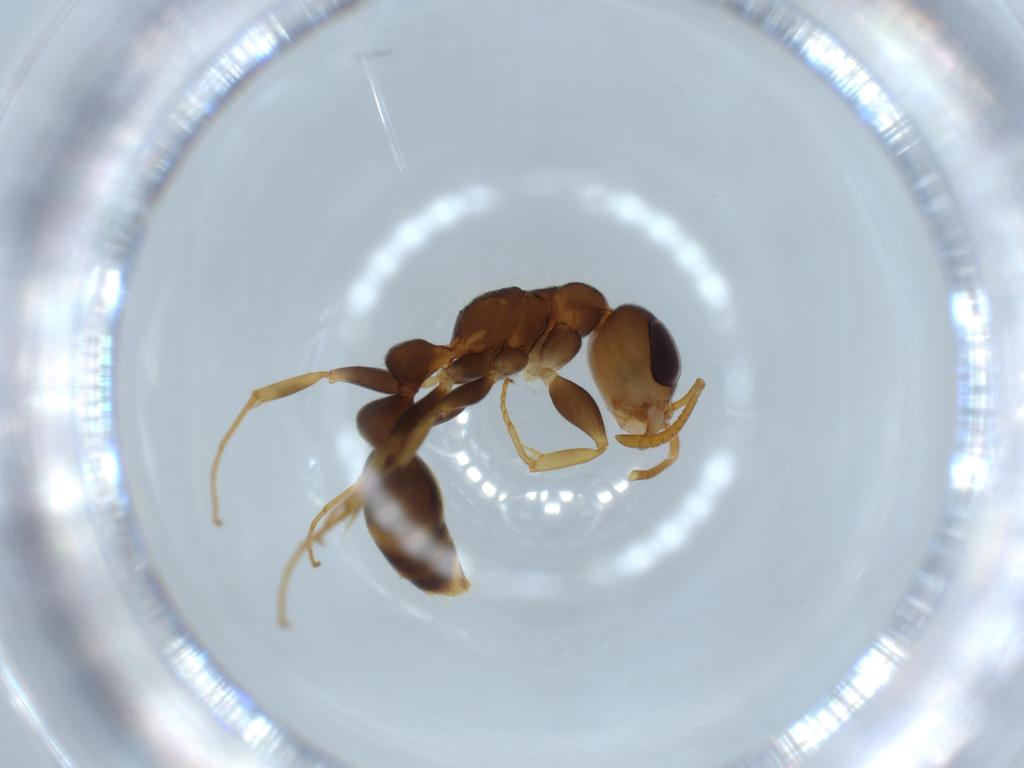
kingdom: Animalia
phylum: Arthropoda
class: Insecta
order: Hymenoptera
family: Formicidae
